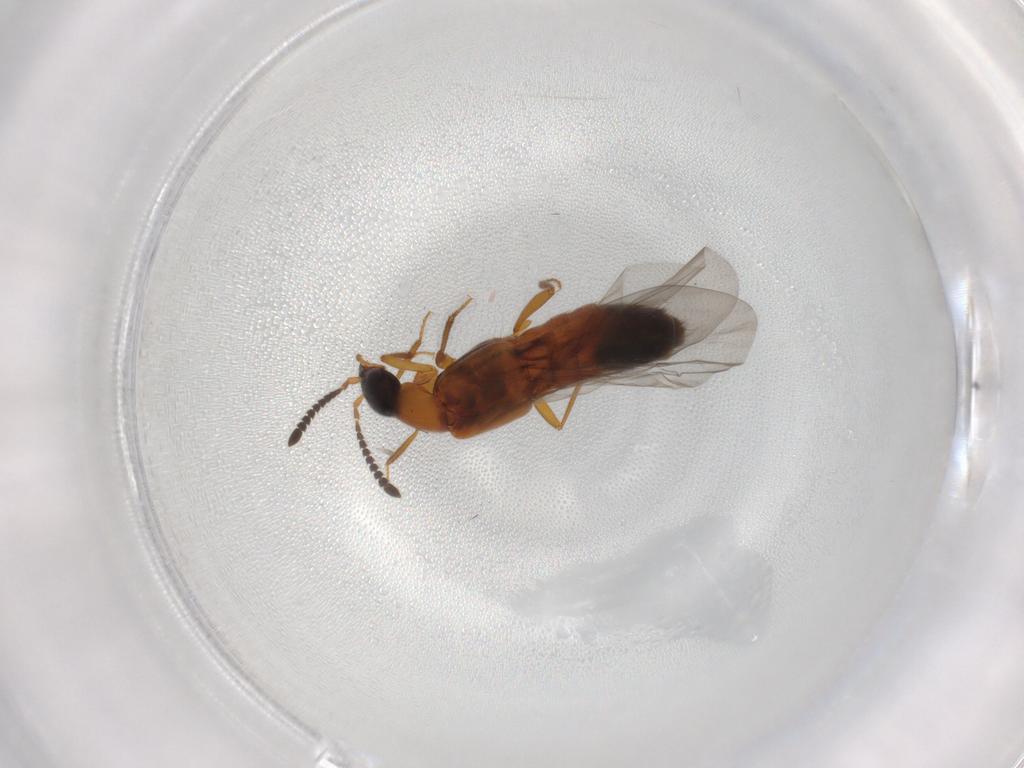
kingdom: Animalia
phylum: Arthropoda
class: Insecta
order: Coleoptera
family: Staphylinidae
